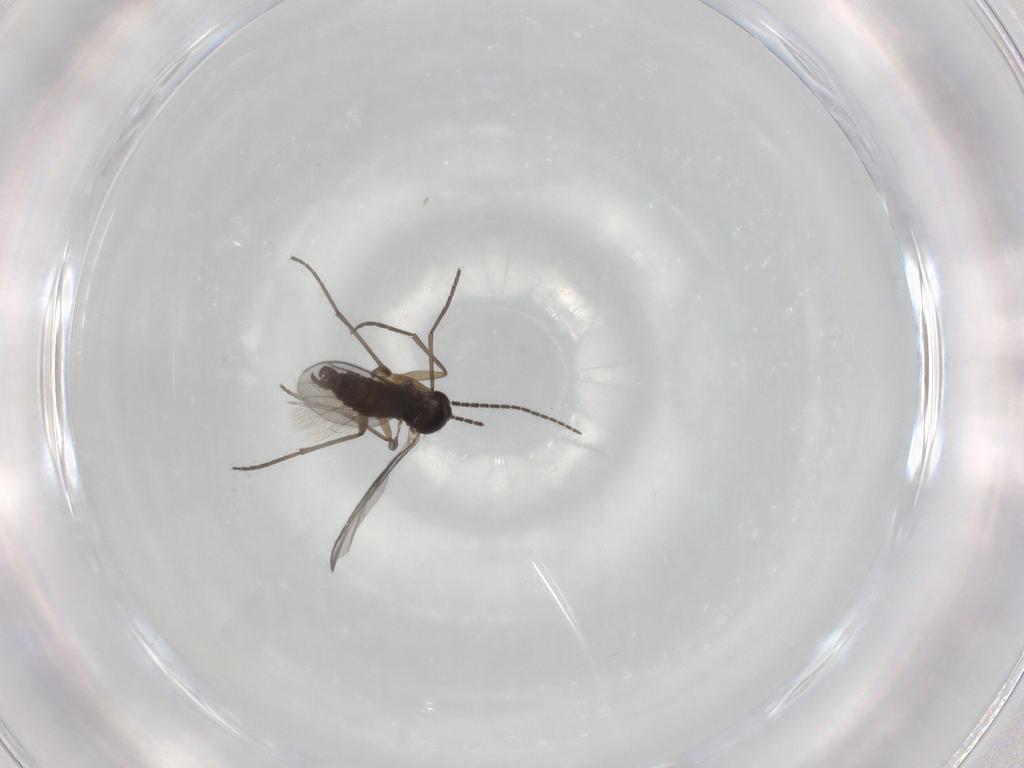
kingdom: Animalia
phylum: Arthropoda
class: Insecta
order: Diptera
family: Sciaridae
